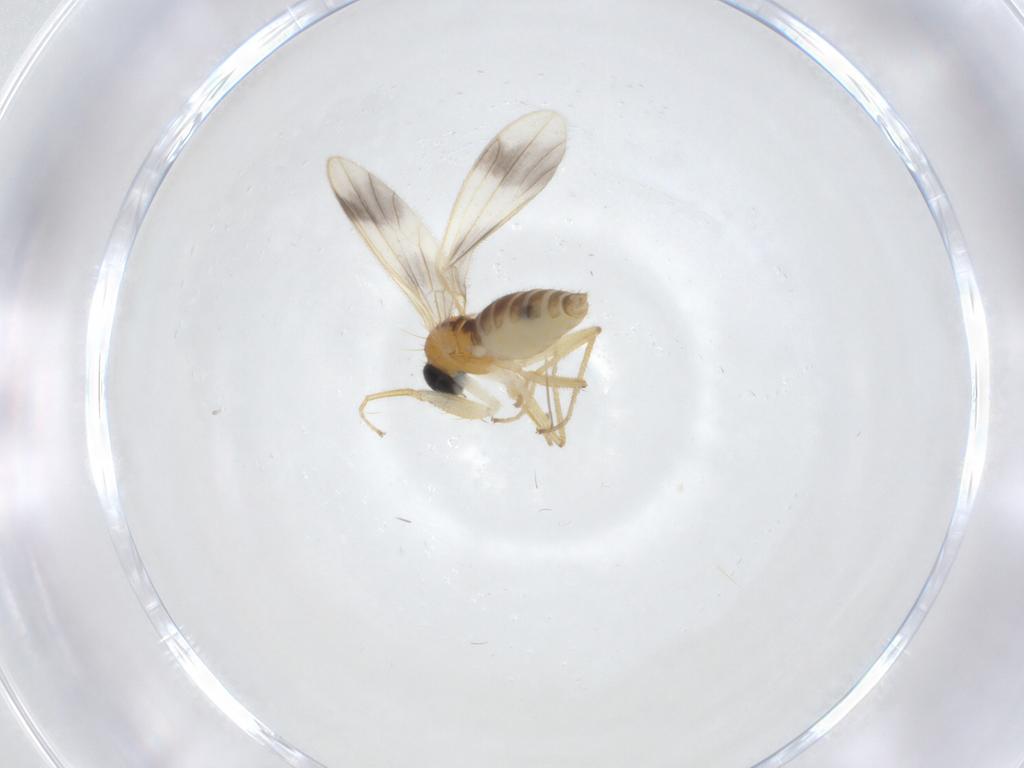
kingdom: Animalia
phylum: Arthropoda
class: Insecta
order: Diptera
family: Empididae
